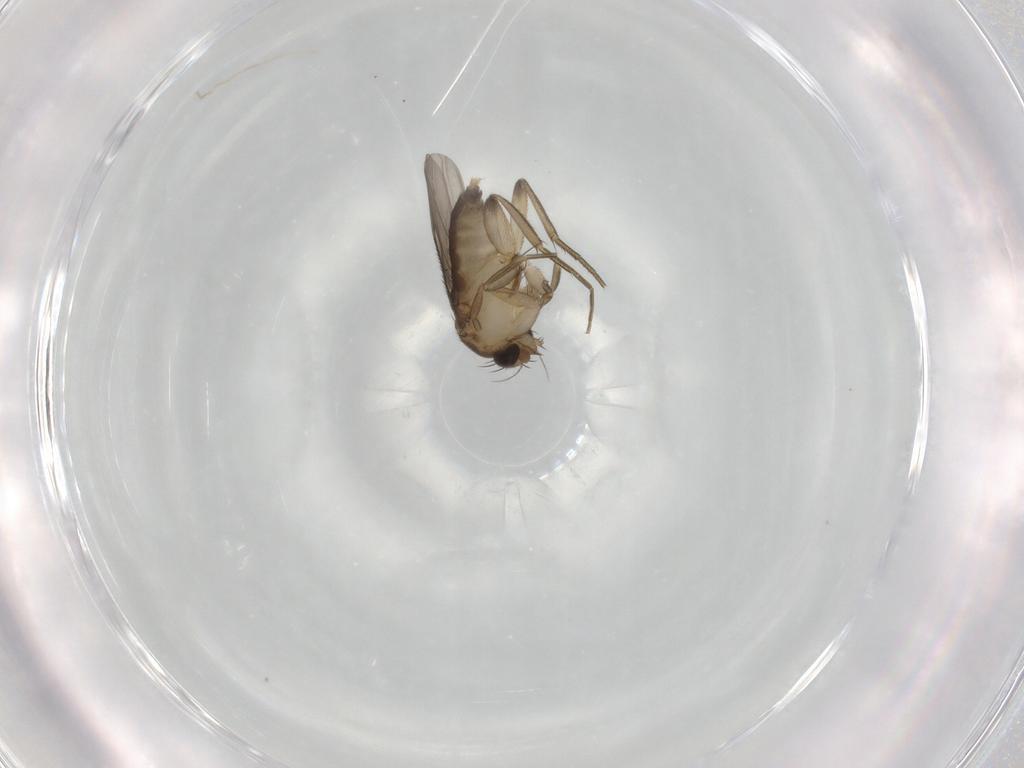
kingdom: Animalia
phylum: Arthropoda
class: Insecta
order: Diptera
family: Phoridae
